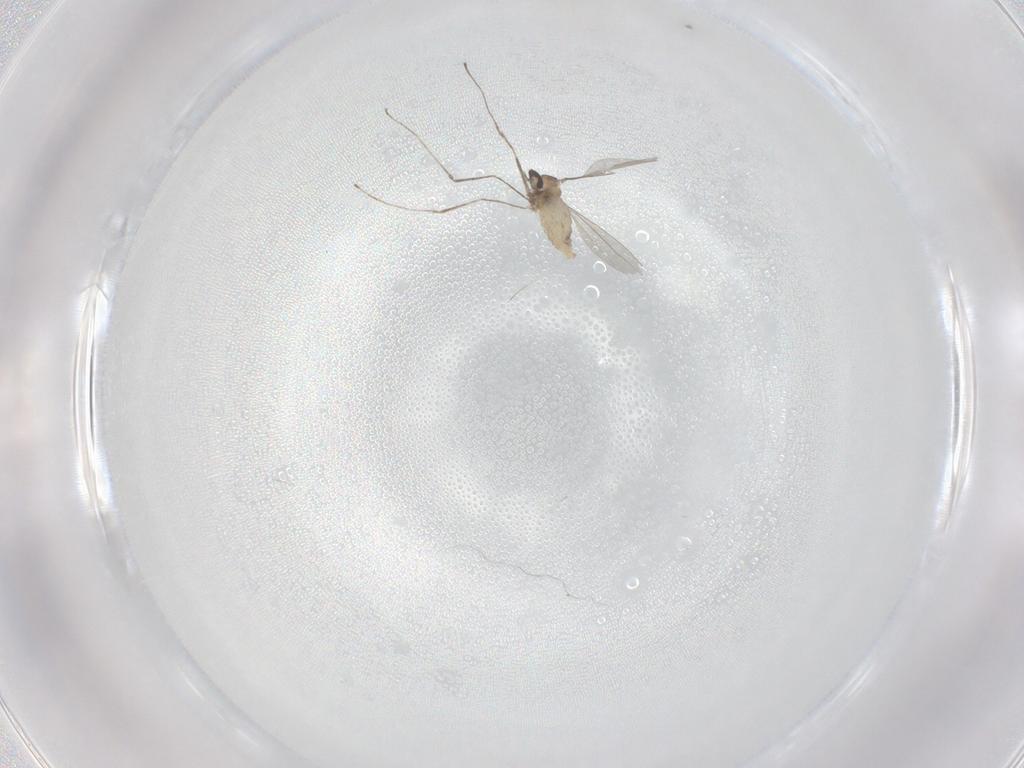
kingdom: Animalia
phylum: Arthropoda
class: Insecta
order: Diptera
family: Cecidomyiidae
